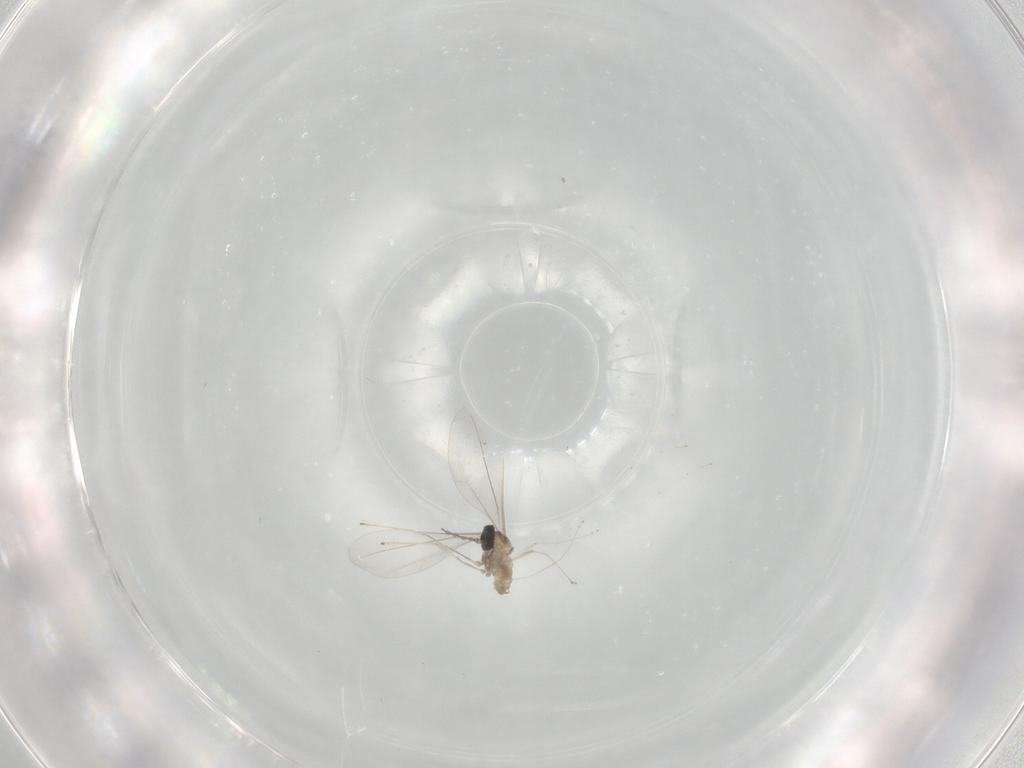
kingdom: Animalia
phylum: Arthropoda
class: Insecta
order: Diptera
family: Cecidomyiidae
